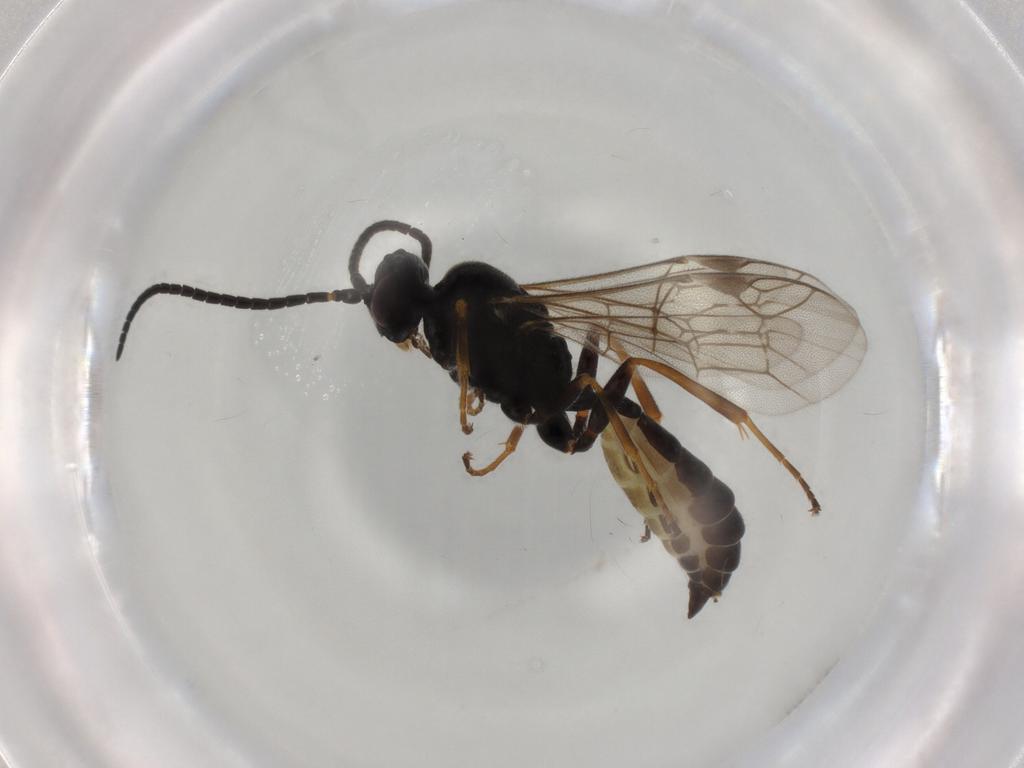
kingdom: Animalia
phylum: Arthropoda
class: Insecta
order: Hymenoptera
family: Ichneumonidae
